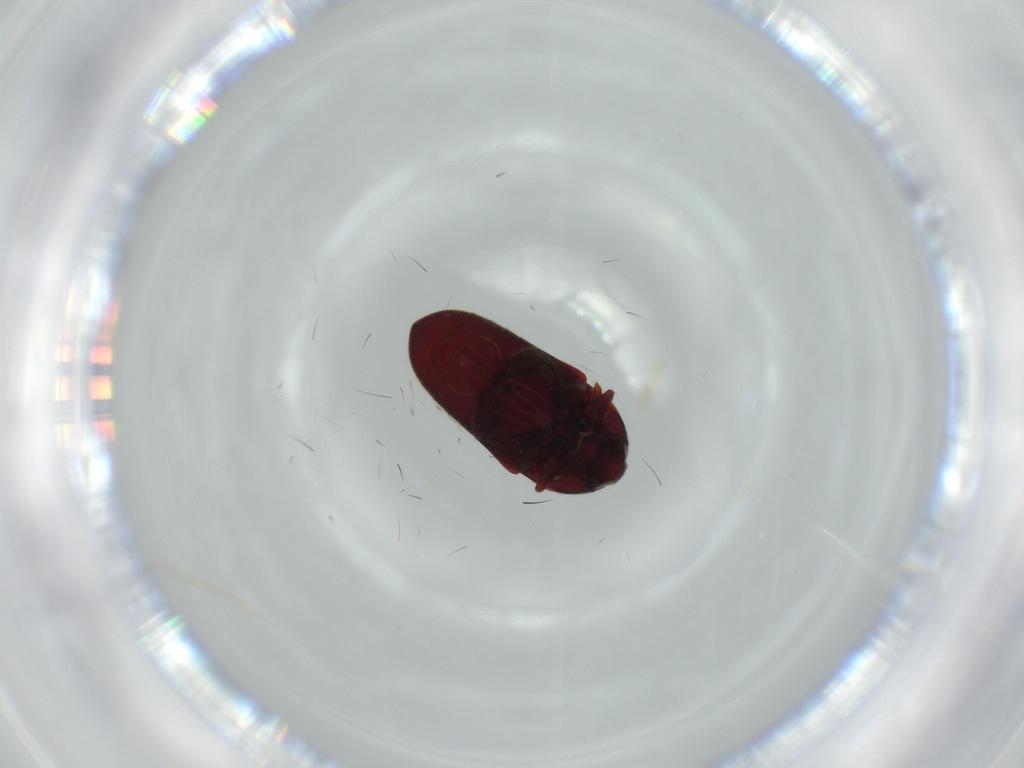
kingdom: Animalia
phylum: Arthropoda
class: Insecta
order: Coleoptera
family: Throscidae
